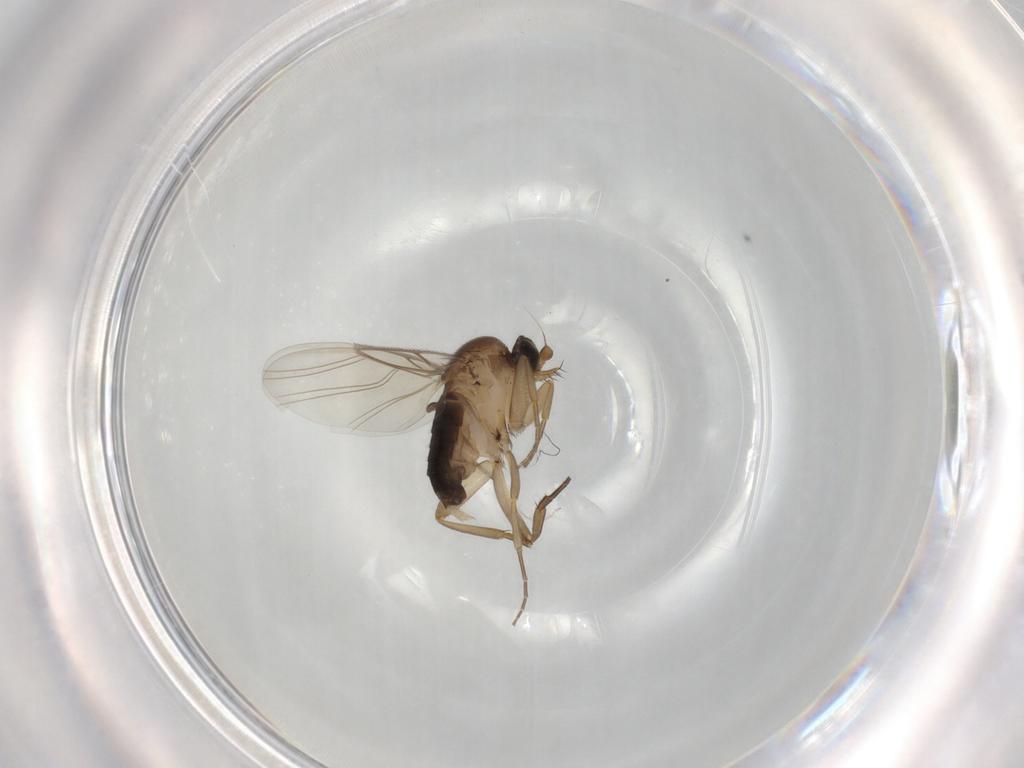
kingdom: Animalia
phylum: Arthropoda
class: Insecta
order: Diptera
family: Phoridae
